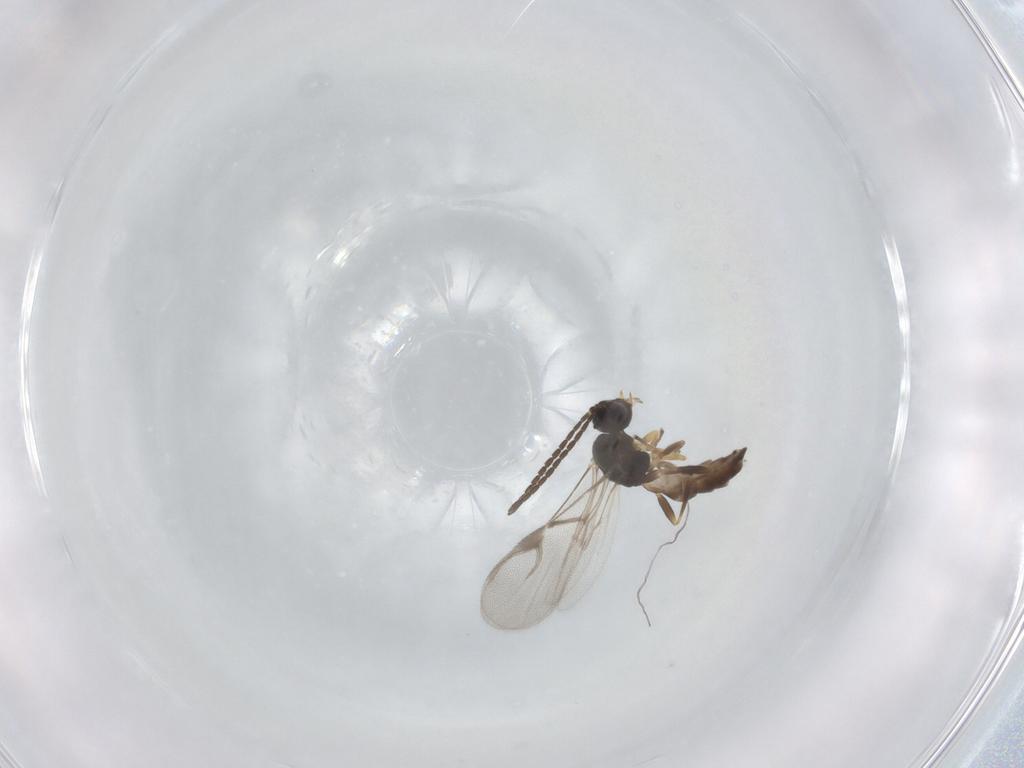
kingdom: Animalia
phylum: Arthropoda
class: Insecta
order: Hymenoptera
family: Braconidae
